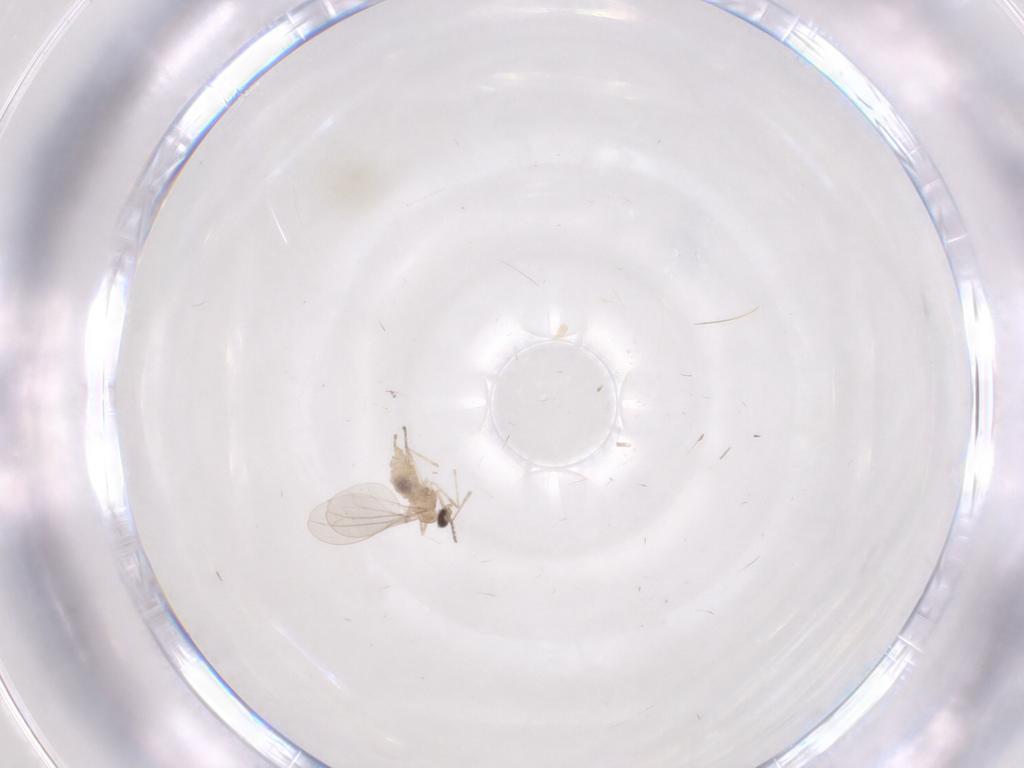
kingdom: Animalia
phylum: Arthropoda
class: Insecta
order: Diptera
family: Cecidomyiidae
